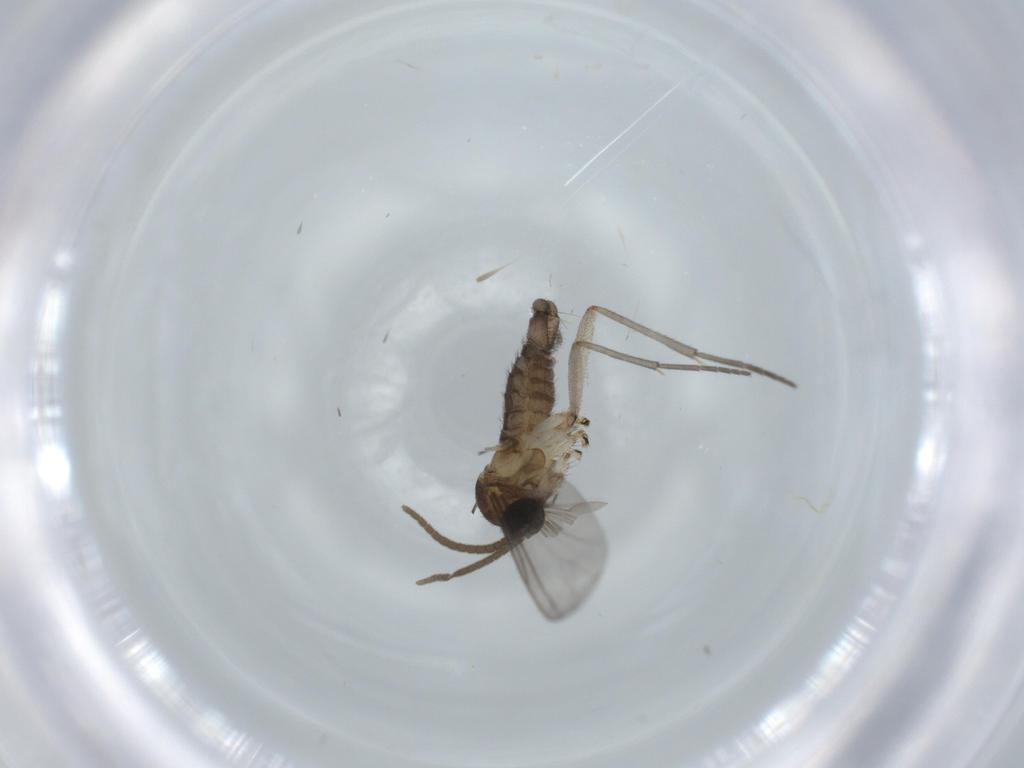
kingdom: Animalia
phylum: Arthropoda
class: Insecta
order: Diptera
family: Sciaridae
